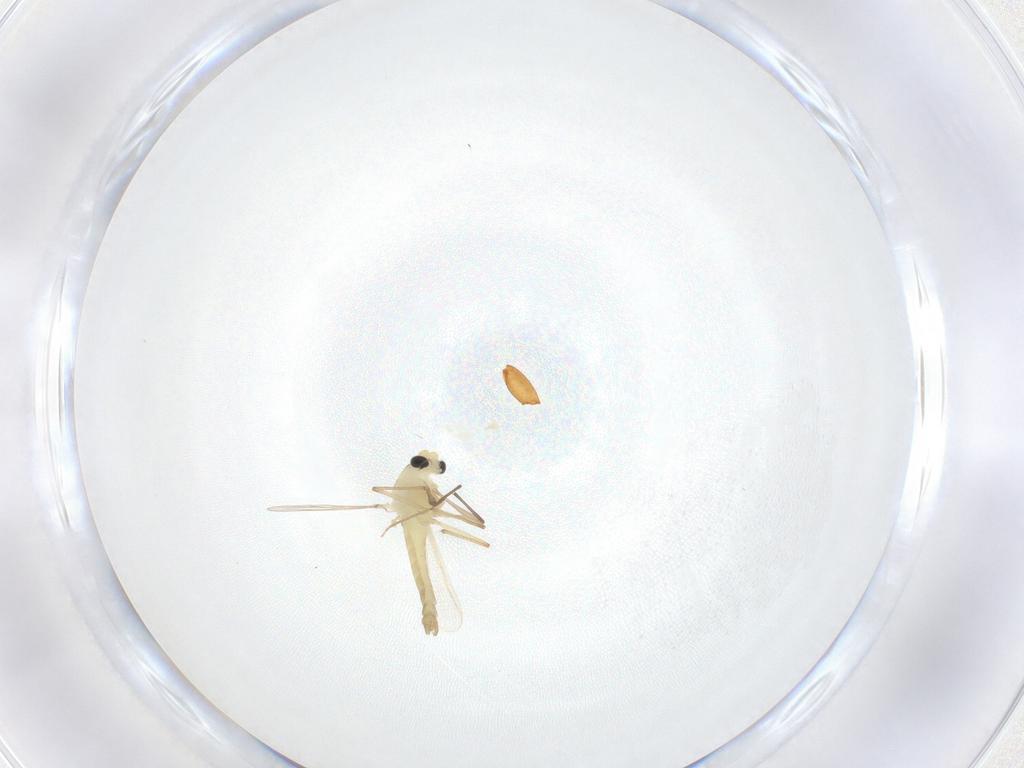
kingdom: Animalia
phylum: Arthropoda
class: Insecta
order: Diptera
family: Chironomidae
